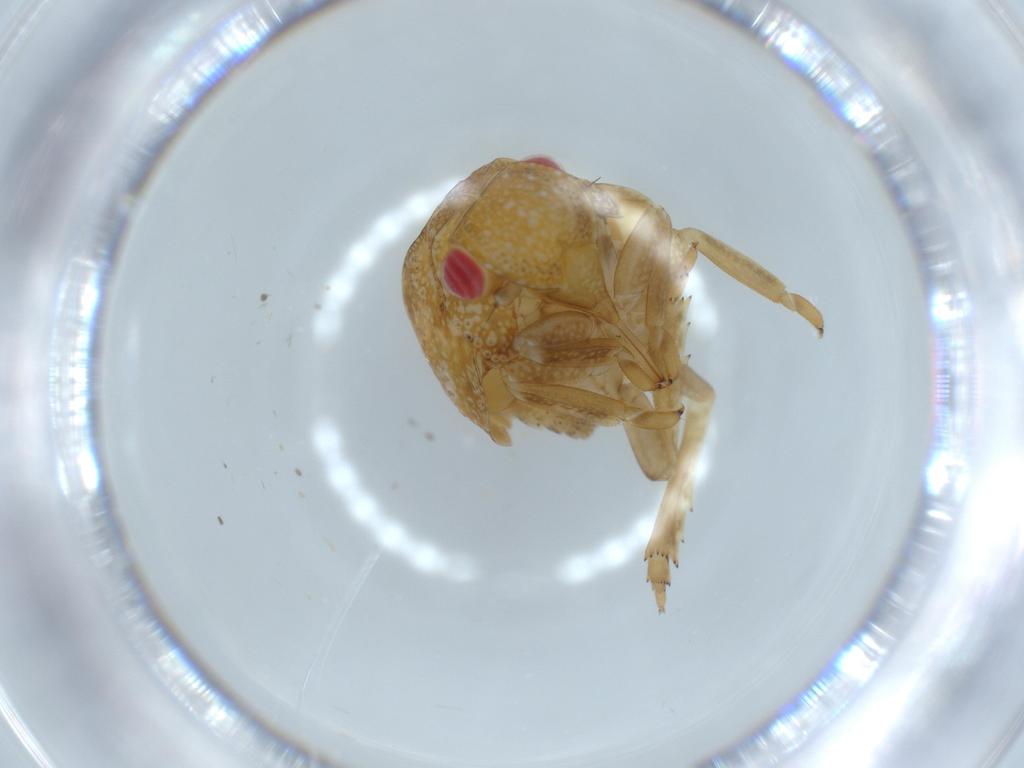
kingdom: Animalia
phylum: Arthropoda
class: Insecta
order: Hemiptera
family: Acanaloniidae
